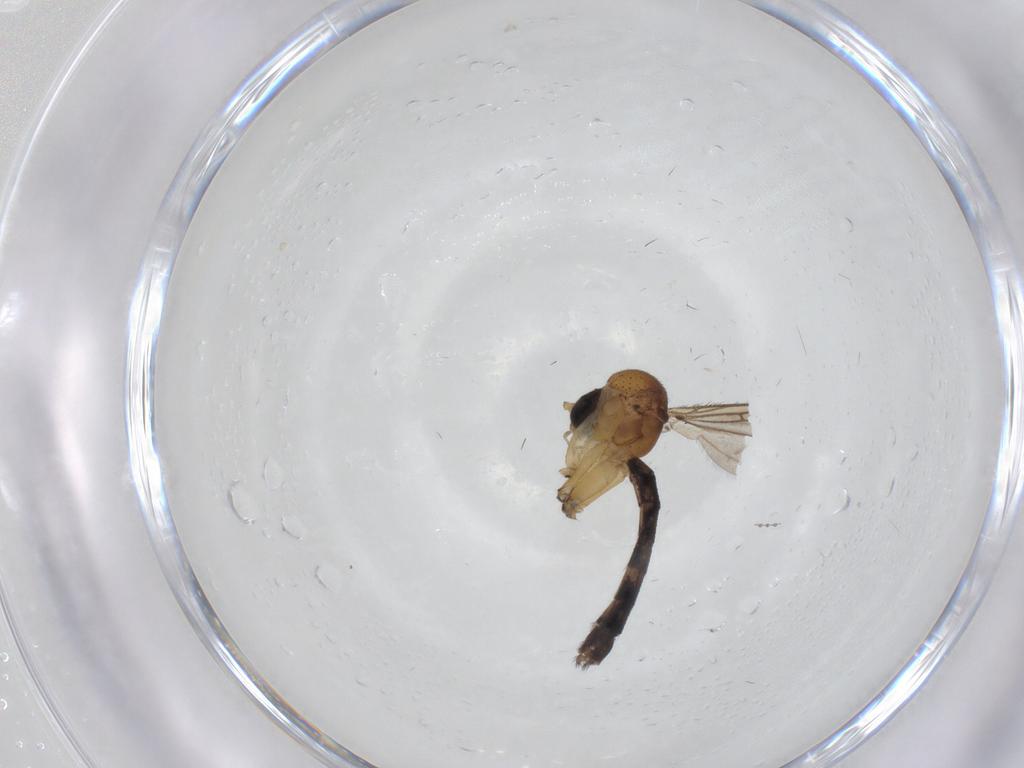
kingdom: Animalia
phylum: Arthropoda
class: Insecta
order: Diptera
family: Mycetophilidae
